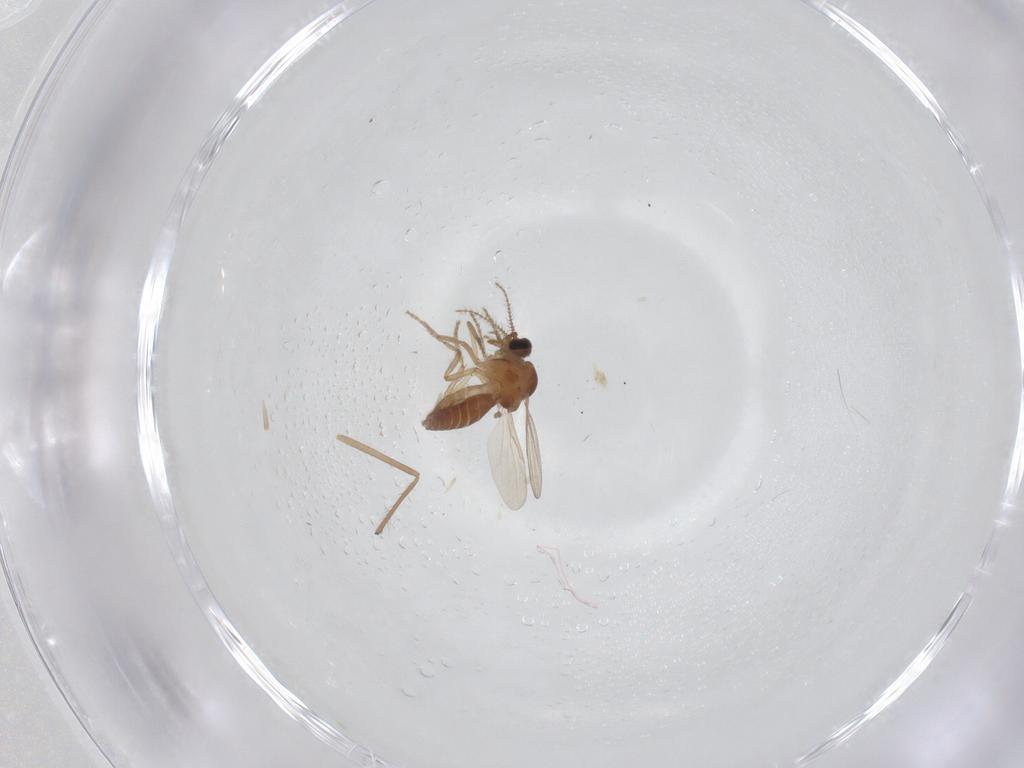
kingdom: Animalia
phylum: Arthropoda
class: Insecta
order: Diptera
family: Ceratopogonidae
